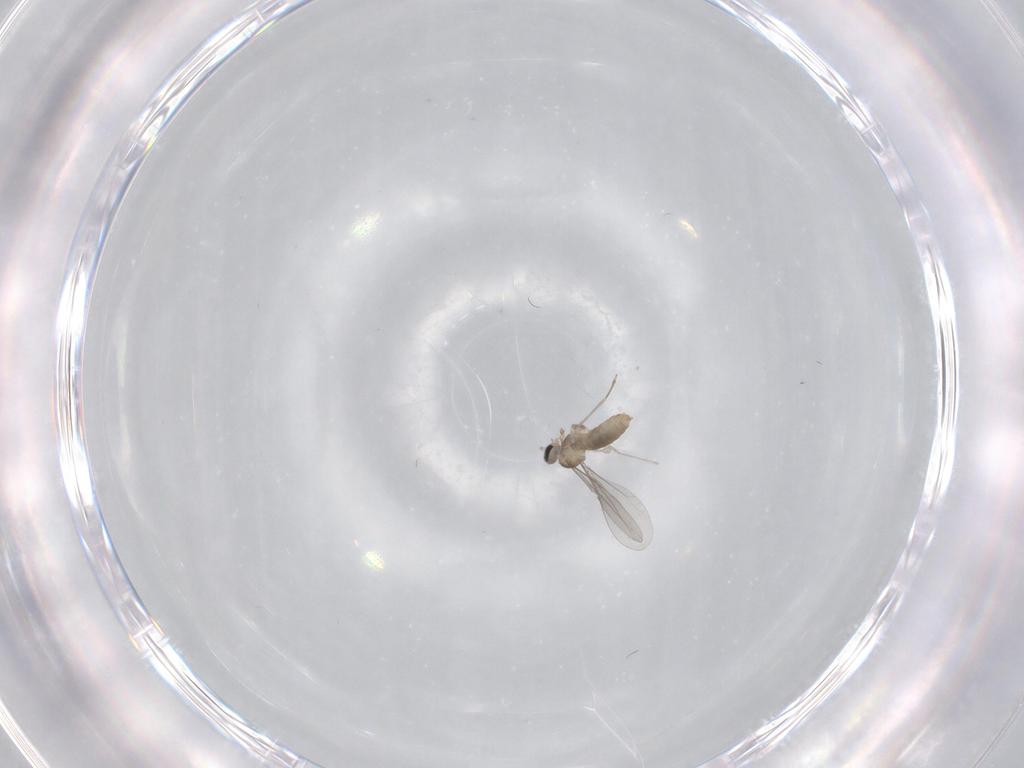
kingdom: Animalia
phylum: Arthropoda
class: Insecta
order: Diptera
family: Cecidomyiidae
